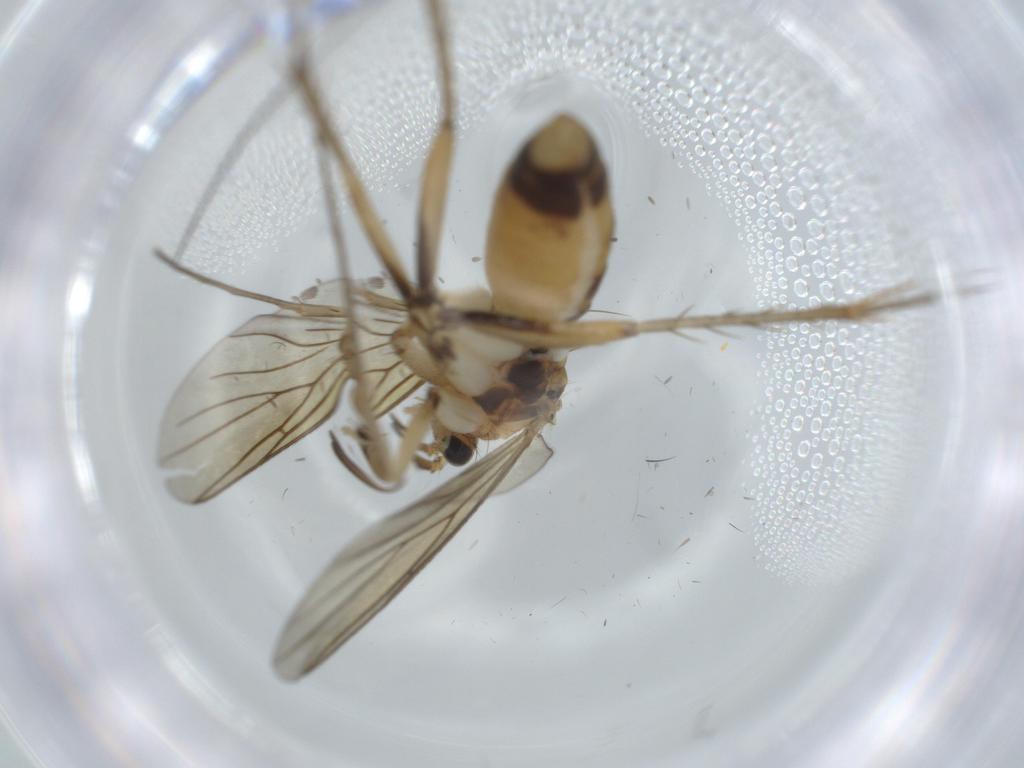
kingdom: Animalia
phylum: Arthropoda
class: Insecta
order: Diptera
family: Mycetophilidae
